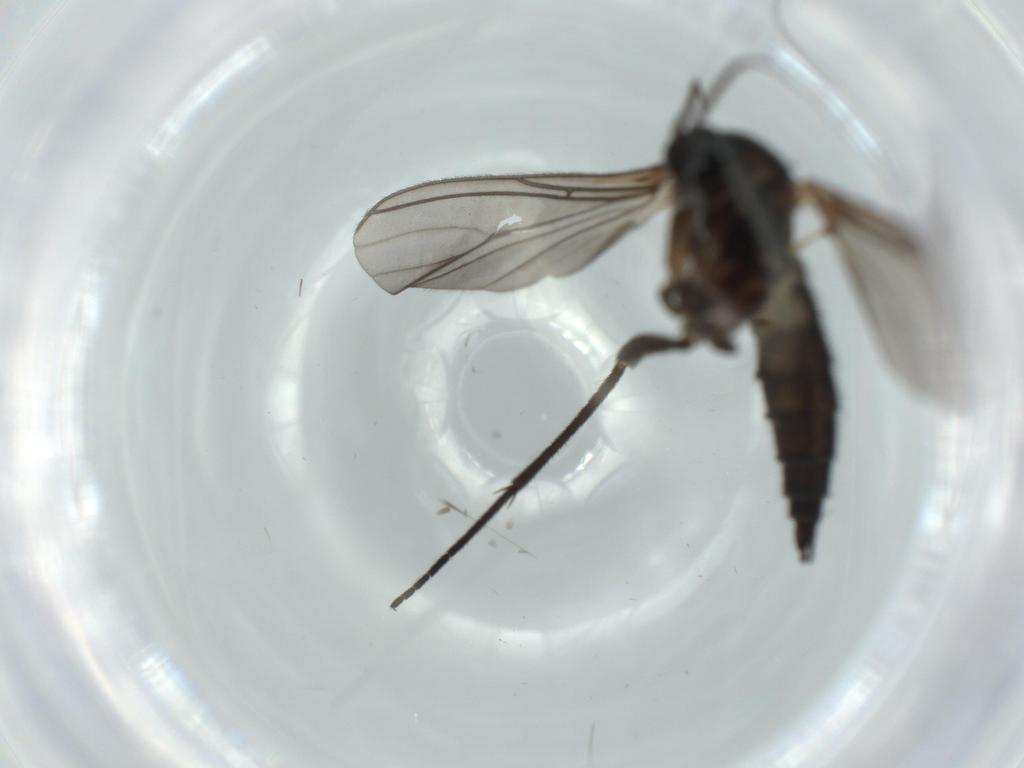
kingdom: Animalia
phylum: Arthropoda
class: Insecta
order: Diptera
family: Sciaridae
